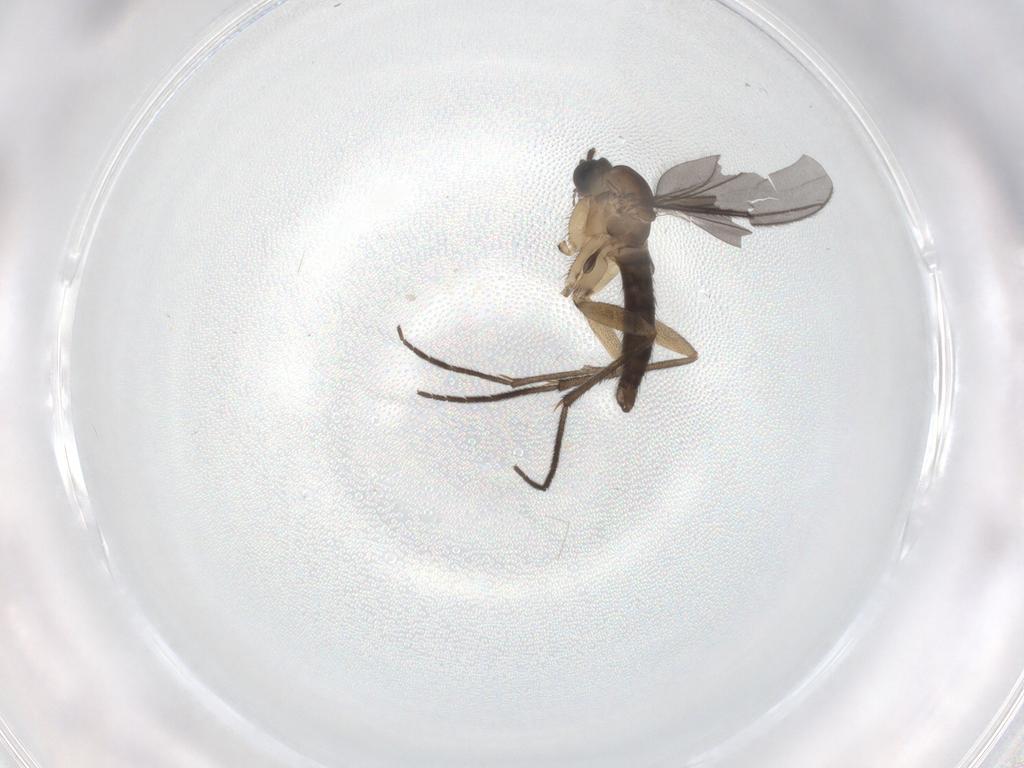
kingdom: Animalia
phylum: Arthropoda
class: Insecta
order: Diptera
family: Sciaridae
